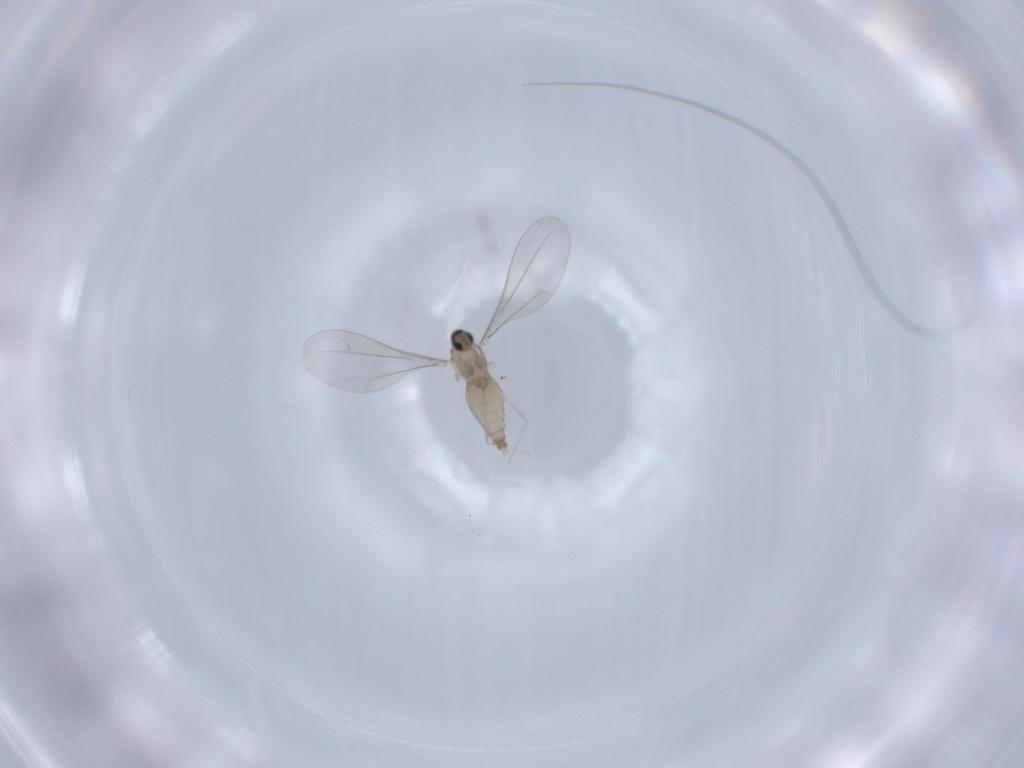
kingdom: Animalia
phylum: Arthropoda
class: Insecta
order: Diptera
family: Cecidomyiidae
